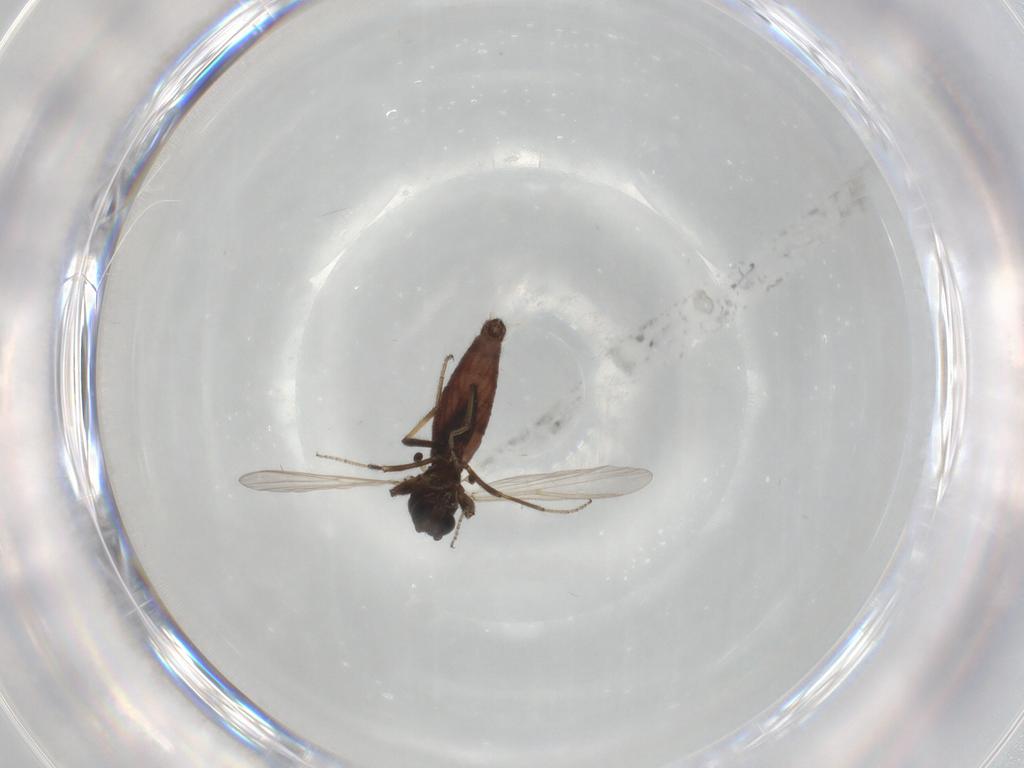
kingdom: Animalia
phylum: Arthropoda
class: Insecta
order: Diptera
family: Ceratopogonidae
